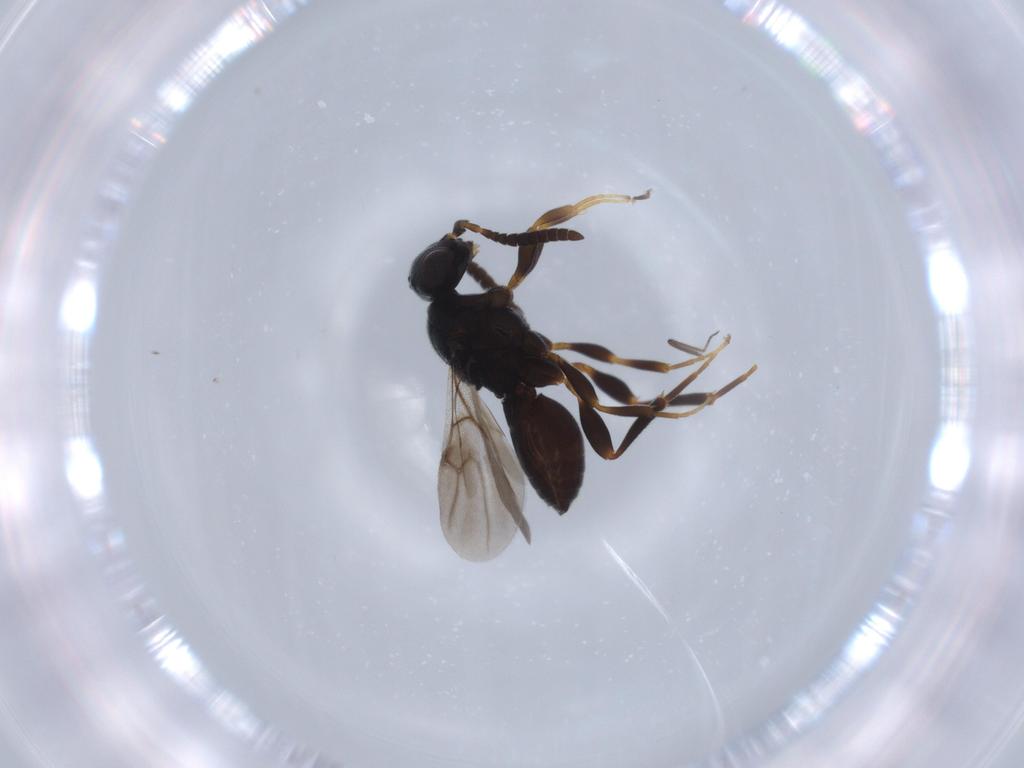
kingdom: Animalia
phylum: Arthropoda
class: Insecta
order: Hymenoptera
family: Platygastridae
